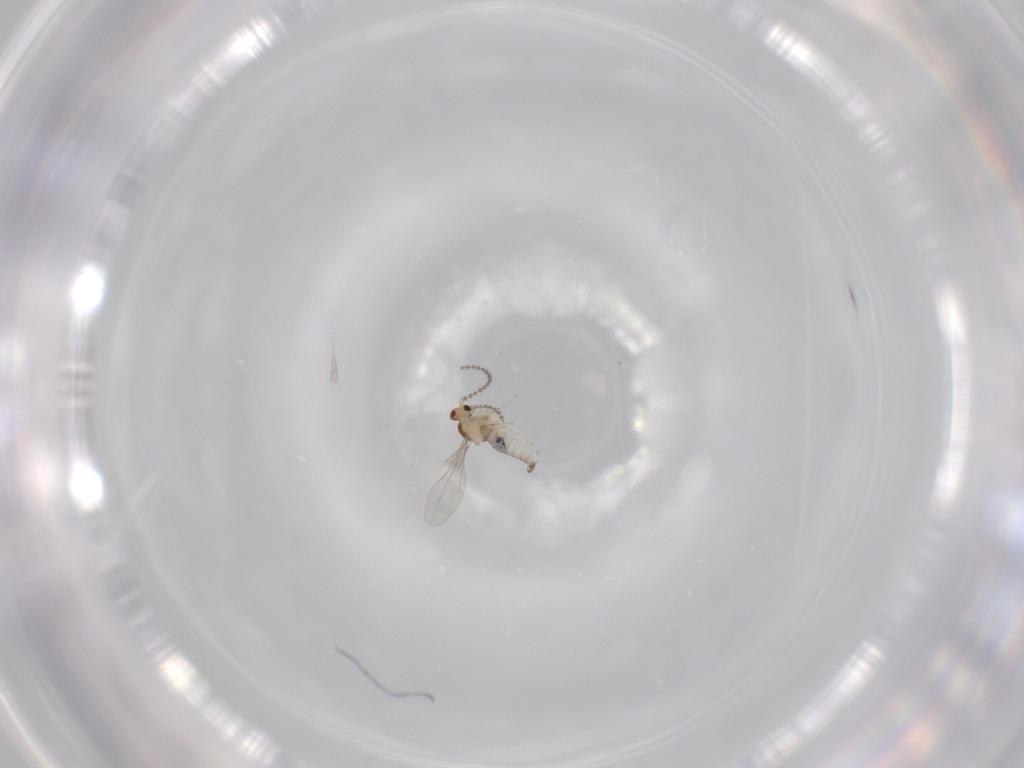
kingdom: Animalia
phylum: Arthropoda
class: Insecta
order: Diptera
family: Cecidomyiidae
